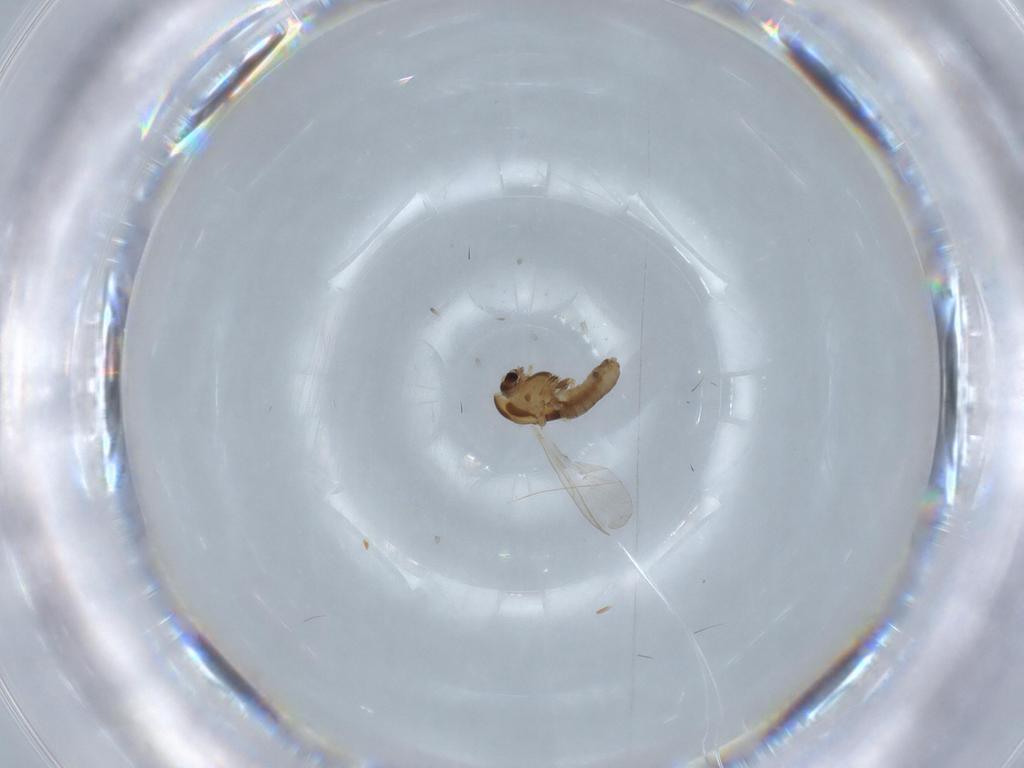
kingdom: Animalia
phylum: Arthropoda
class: Insecta
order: Diptera
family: Chironomidae
